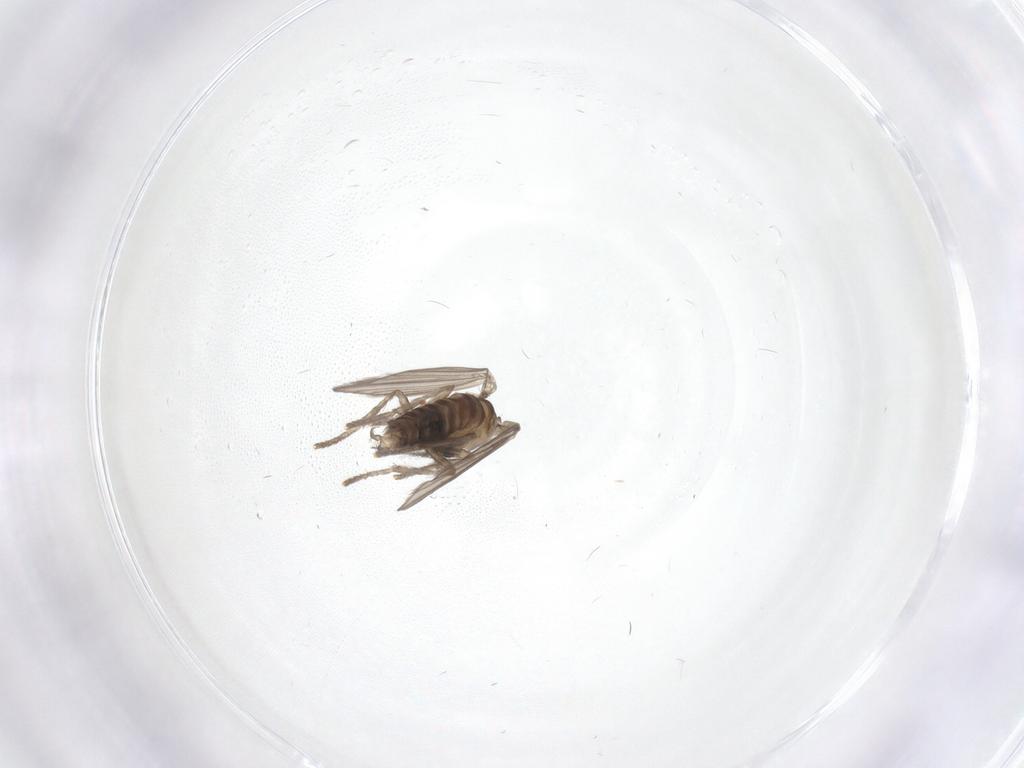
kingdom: Animalia
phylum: Arthropoda
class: Insecta
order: Diptera
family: Psychodidae
